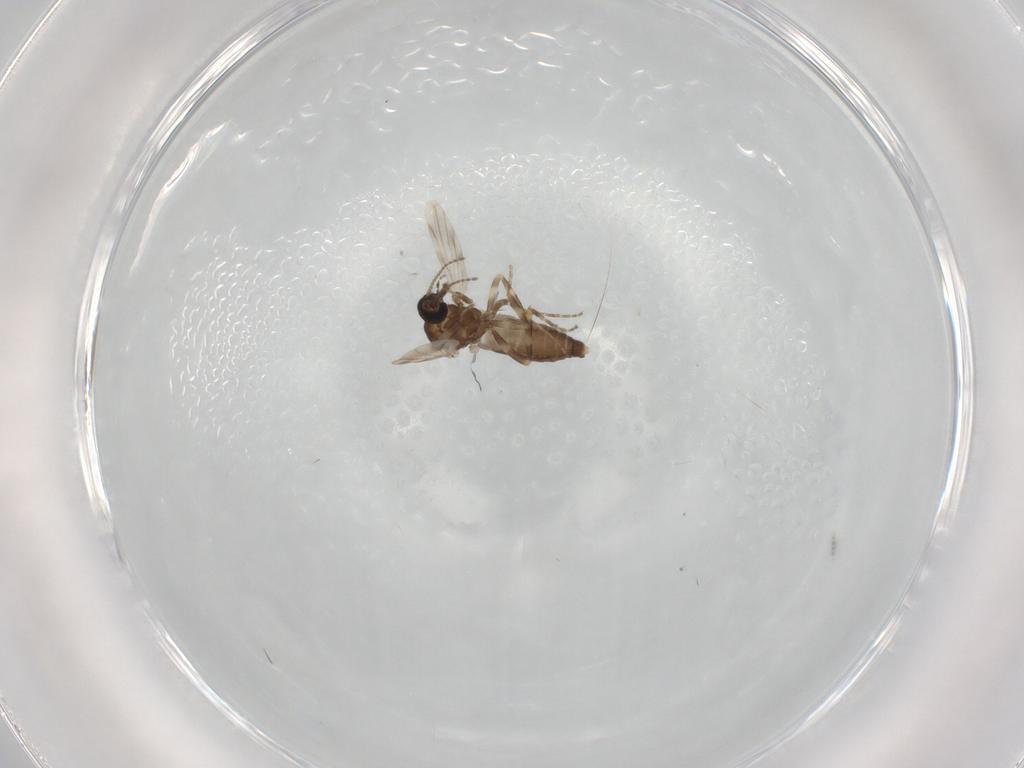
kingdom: Animalia
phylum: Arthropoda
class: Insecta
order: Diptera
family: Ceratopogonidae
